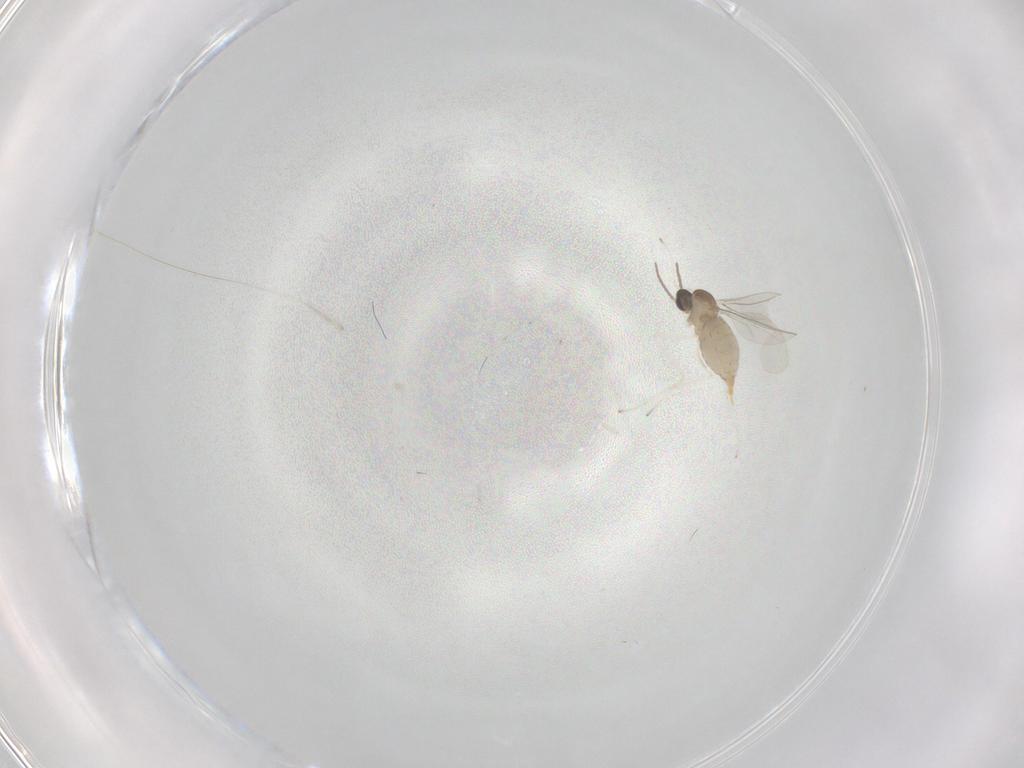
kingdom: Animalia
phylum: Arthropoda
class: Insecta
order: Diptera
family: Cecidomyiidae
